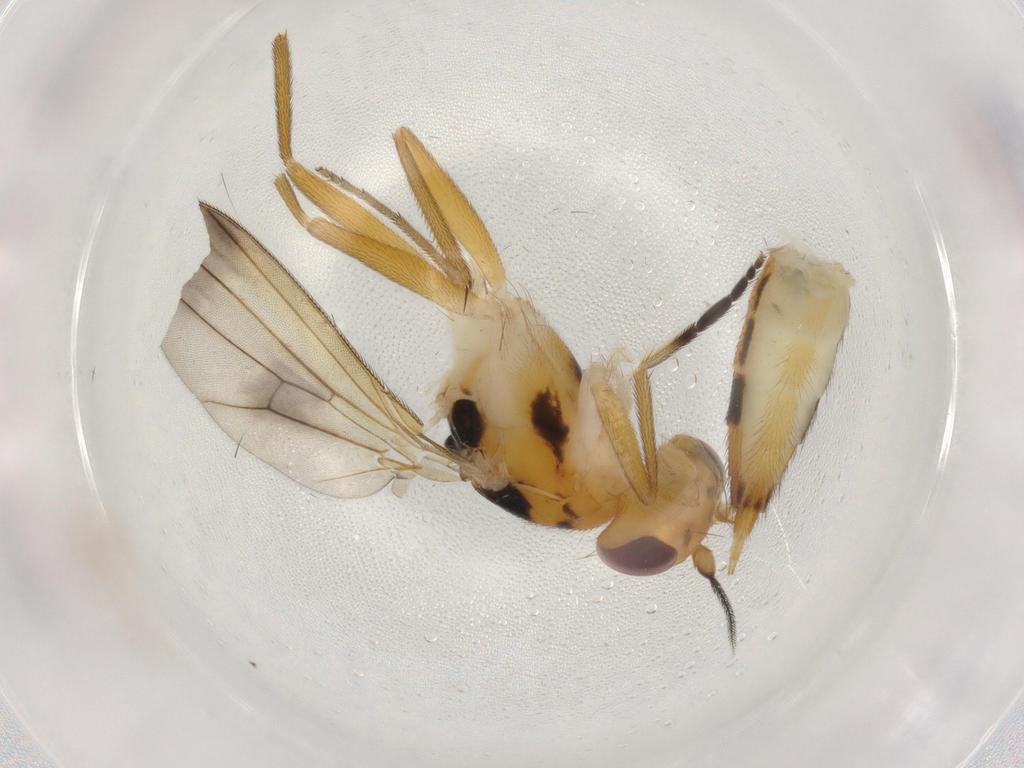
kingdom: Animalia
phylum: Arthropoda
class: Insecta
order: Diptera
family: Clusiidae
